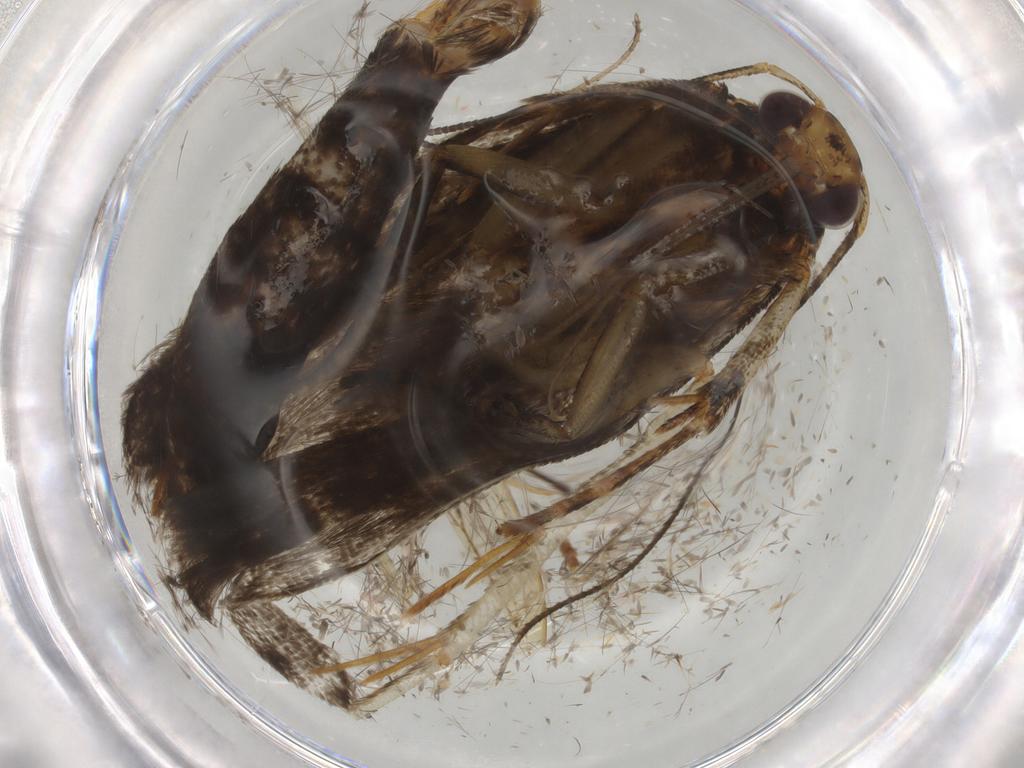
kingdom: Animalia
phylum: Arthropoda
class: Insecta
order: Lepidoptera
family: Gelechiidae
